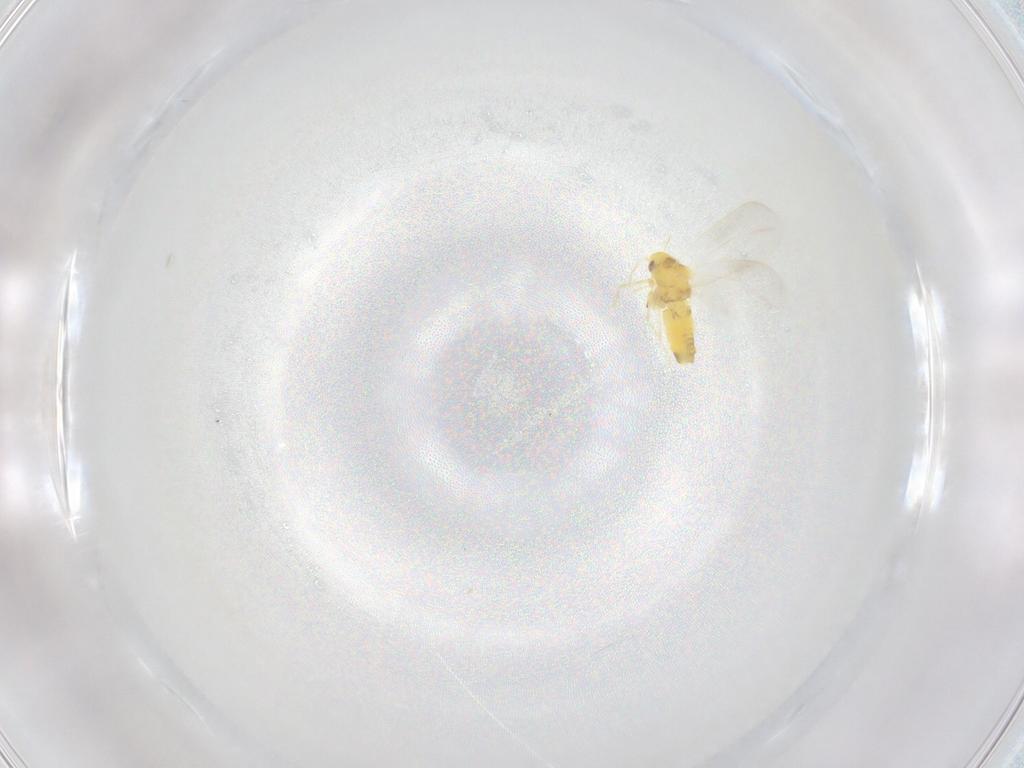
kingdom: Animalia
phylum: Arthropoda
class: Insecta
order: Hemiptera
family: Aleyrodidae
